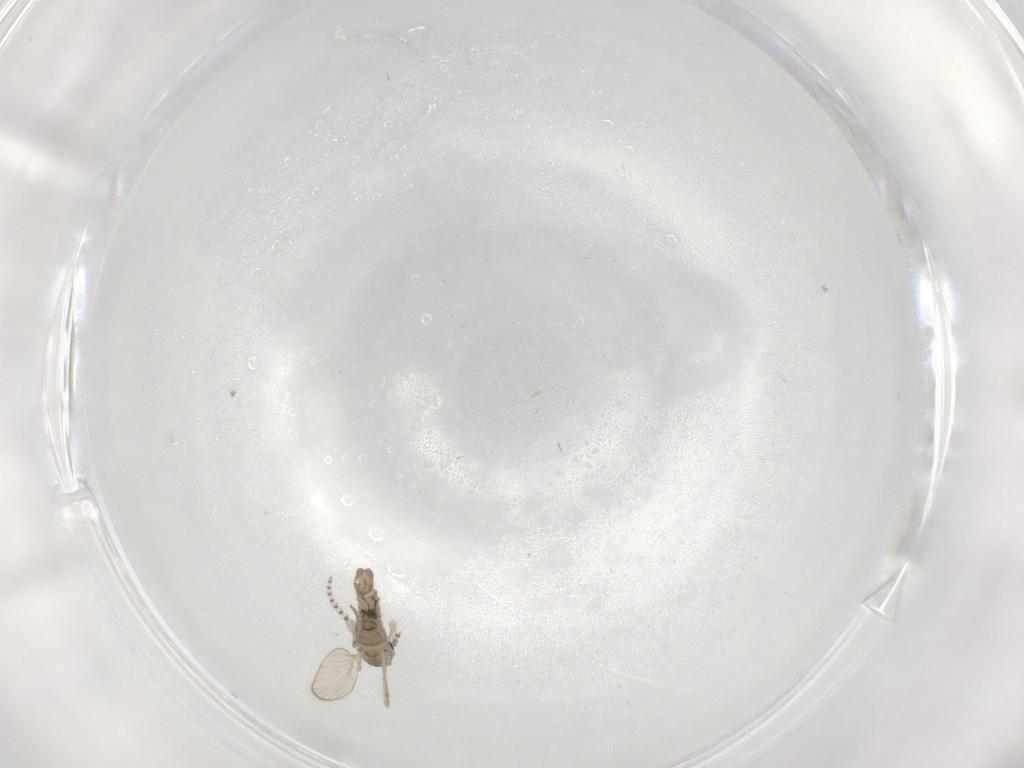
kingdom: Animalia
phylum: Arthropoda
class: Insecta
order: Diptera
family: Psychodidae
